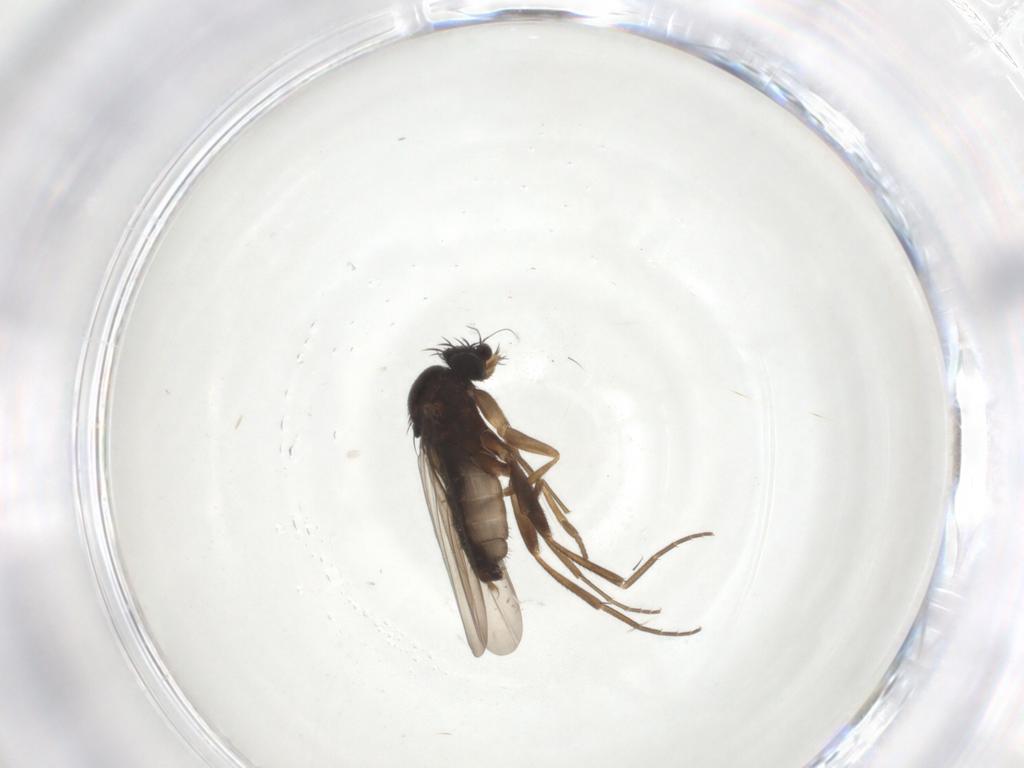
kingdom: Animalia
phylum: Arthropoda
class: Insecta
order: Diptera
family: Phoridae
